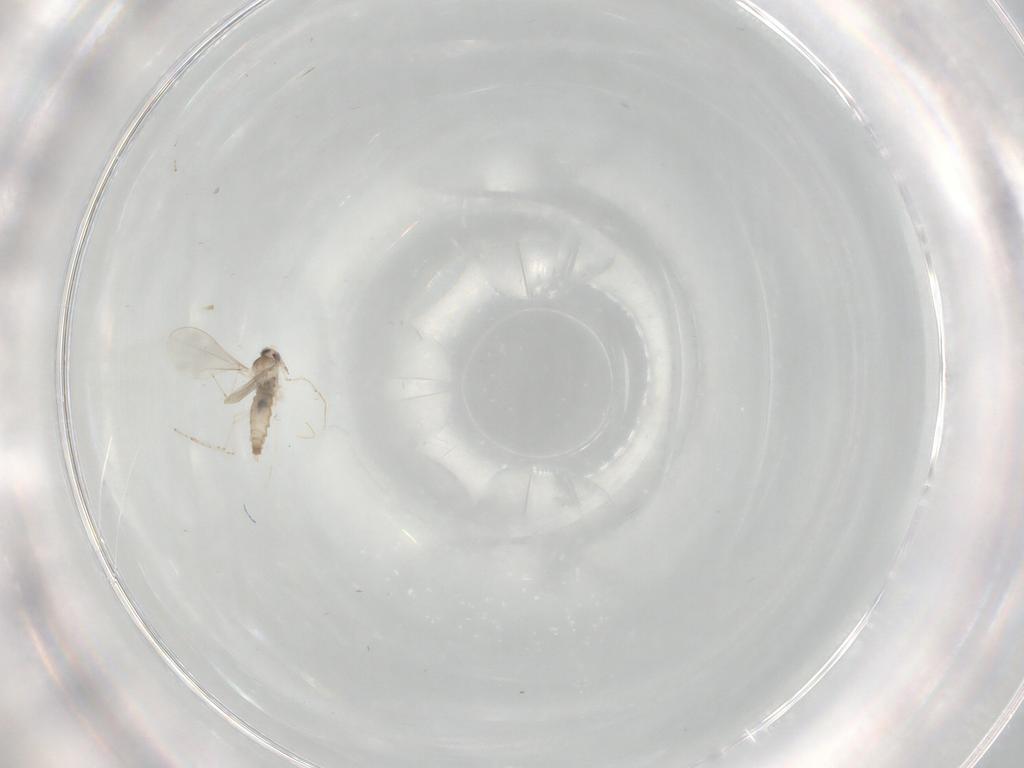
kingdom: Animalia
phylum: Arthropoda
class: Insecta
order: Diptera
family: Cecidomyiidae
